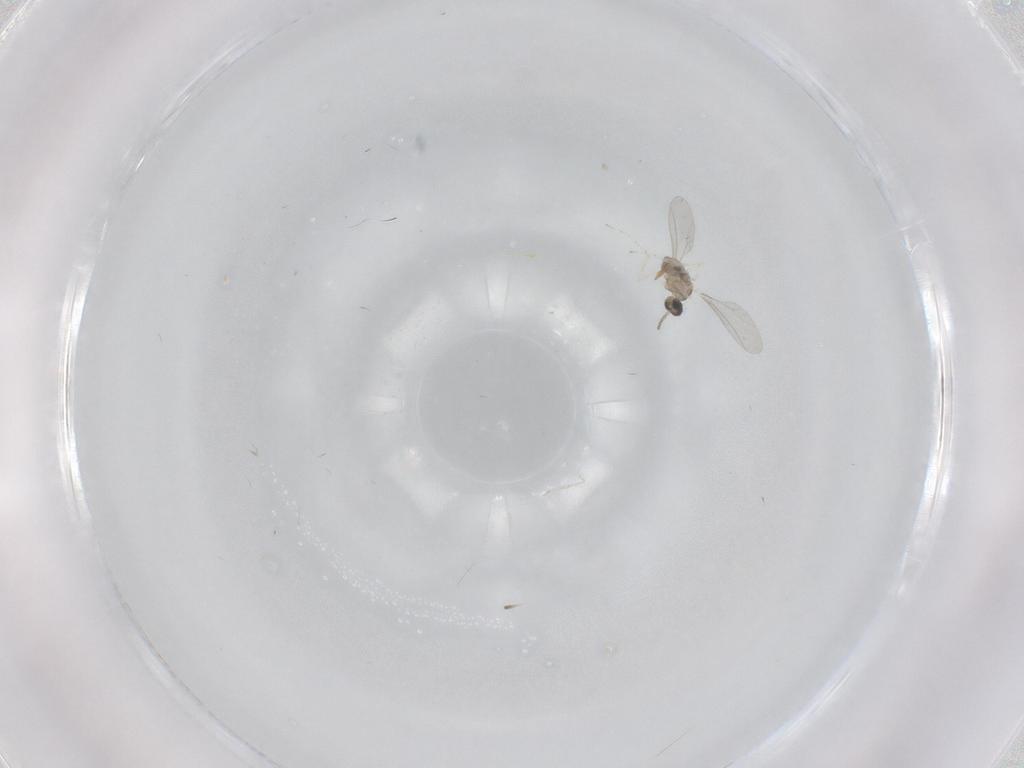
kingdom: Animalia
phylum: Arthropoda
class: Insecta
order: Diptera
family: Cecidomyiidae
